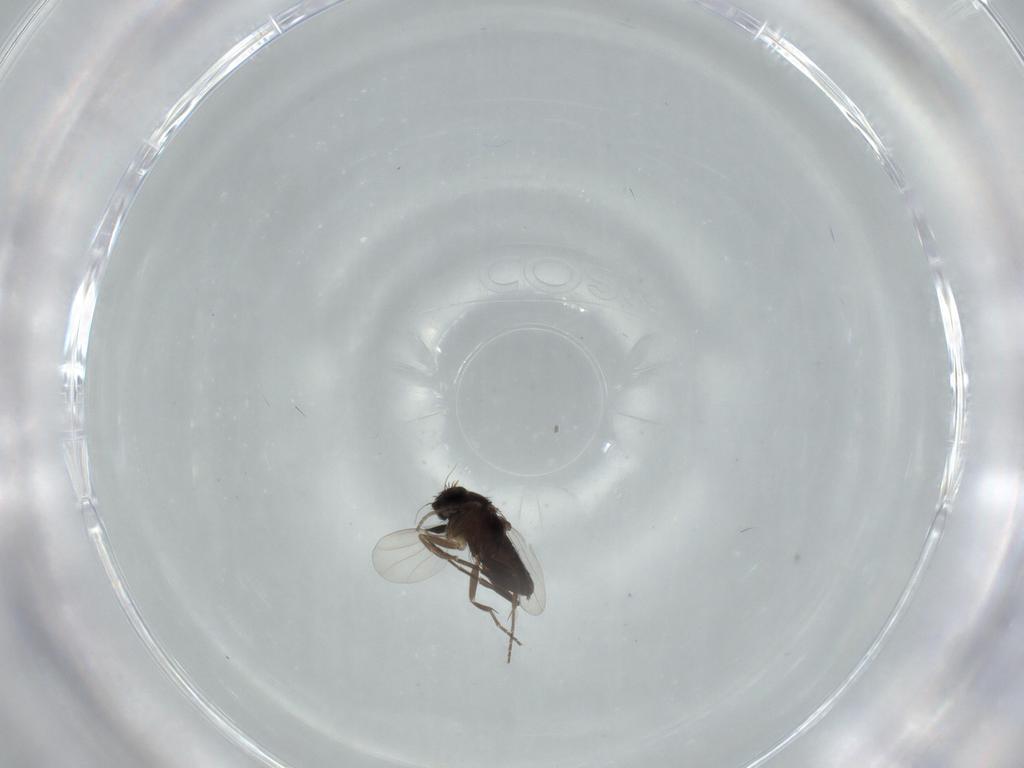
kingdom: Animalia
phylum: Arthropoda
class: Insecta
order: Diptera
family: Phoridae
